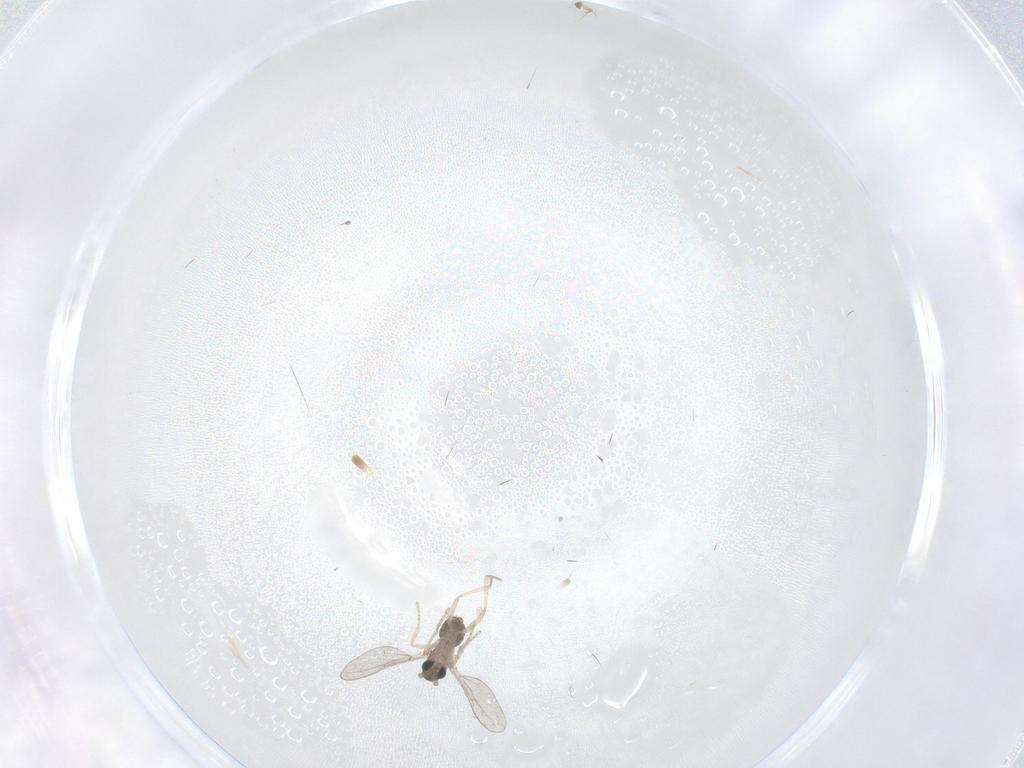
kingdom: Animalia
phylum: Arthropoda
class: Insecta
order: Diptera
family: Cecidomyiidae
